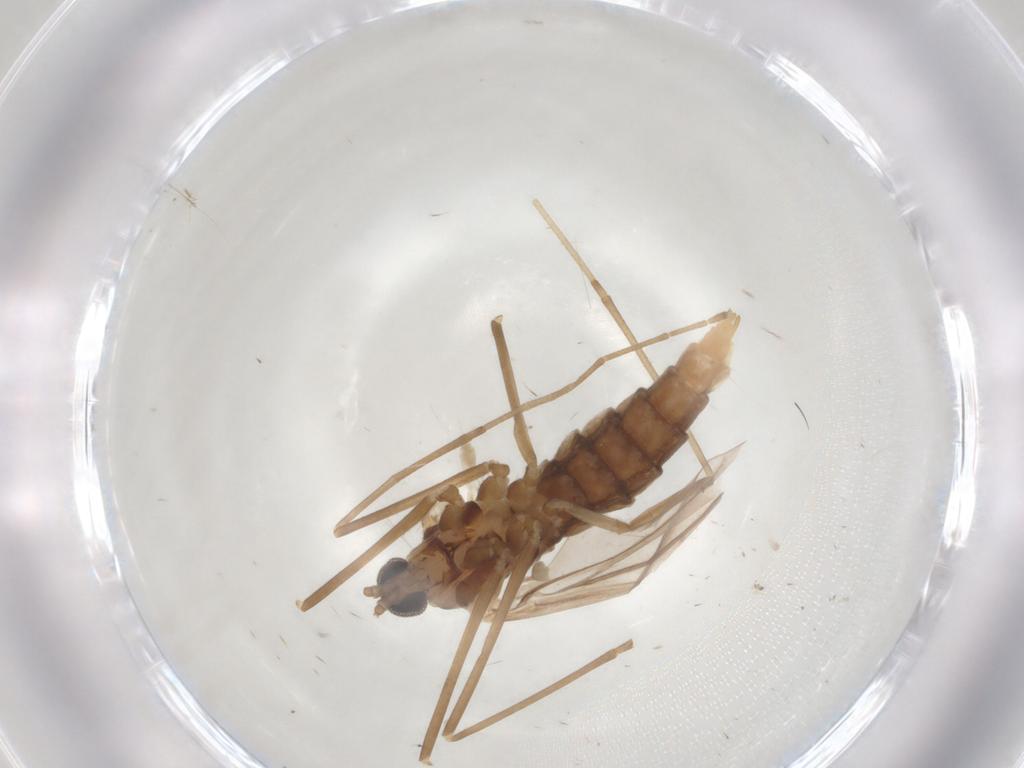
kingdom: Animalia
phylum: Arthropoda
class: Insecta
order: Diptera
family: Cecidomyiidae
